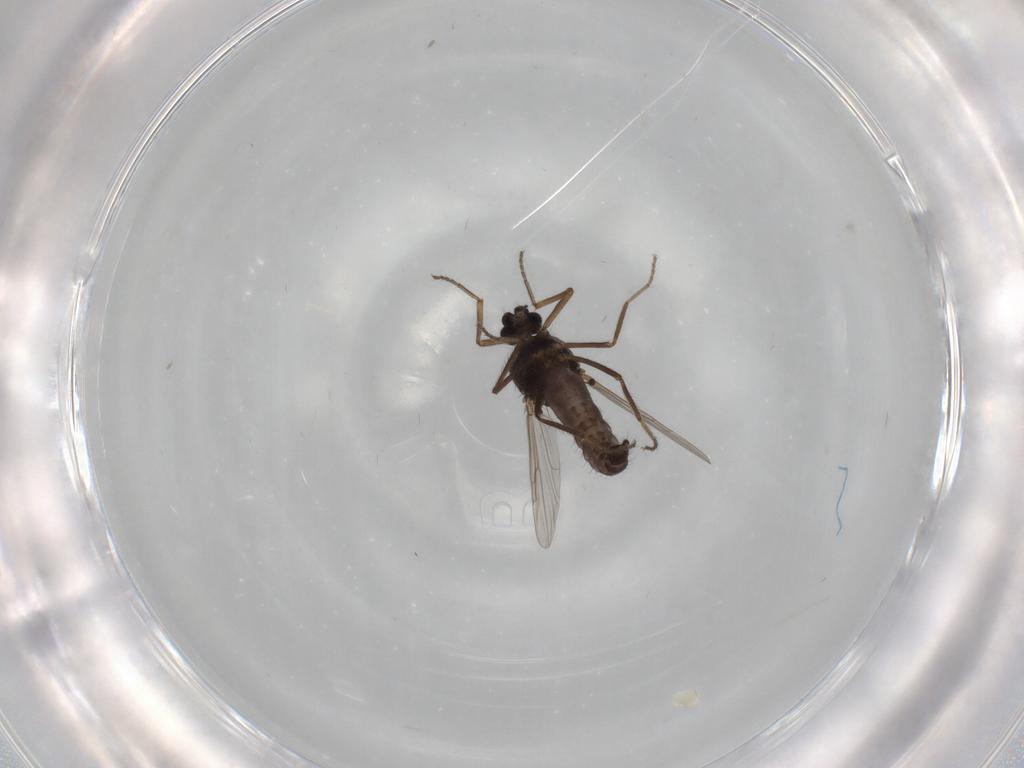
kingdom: Animalia
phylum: Arthropoda
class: Insecta
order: Diptera
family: Ceratopogonidae
